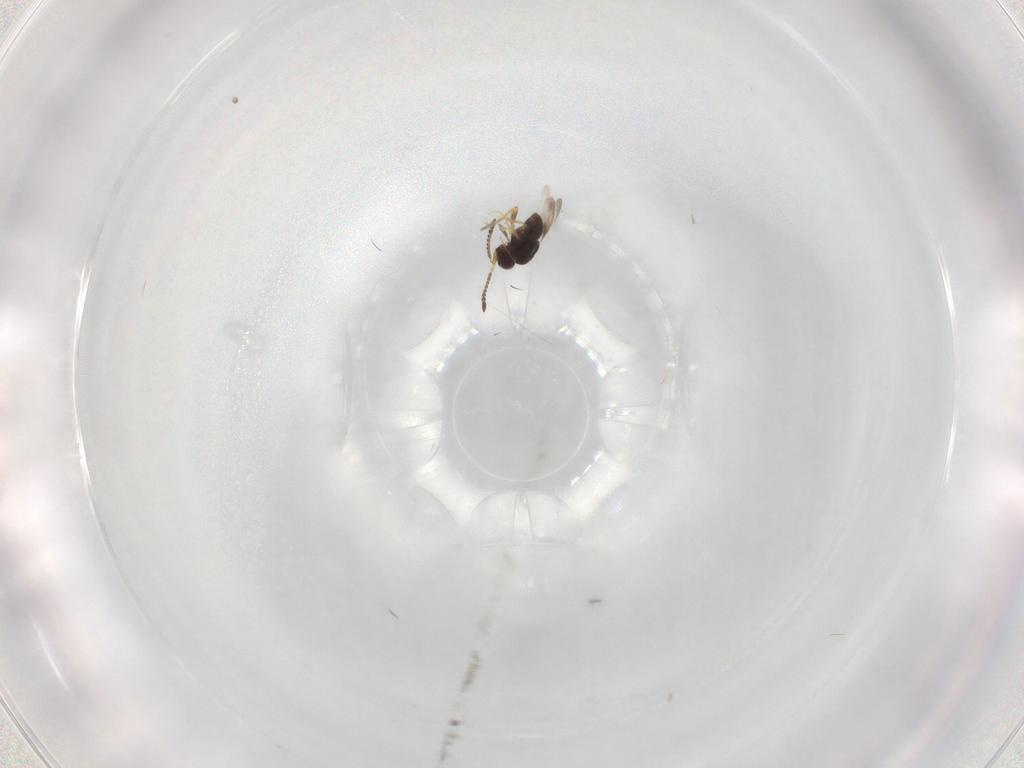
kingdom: Animalia
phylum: Arthropoda
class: Insecta
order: Hymenoptera
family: Ceraphronidae
